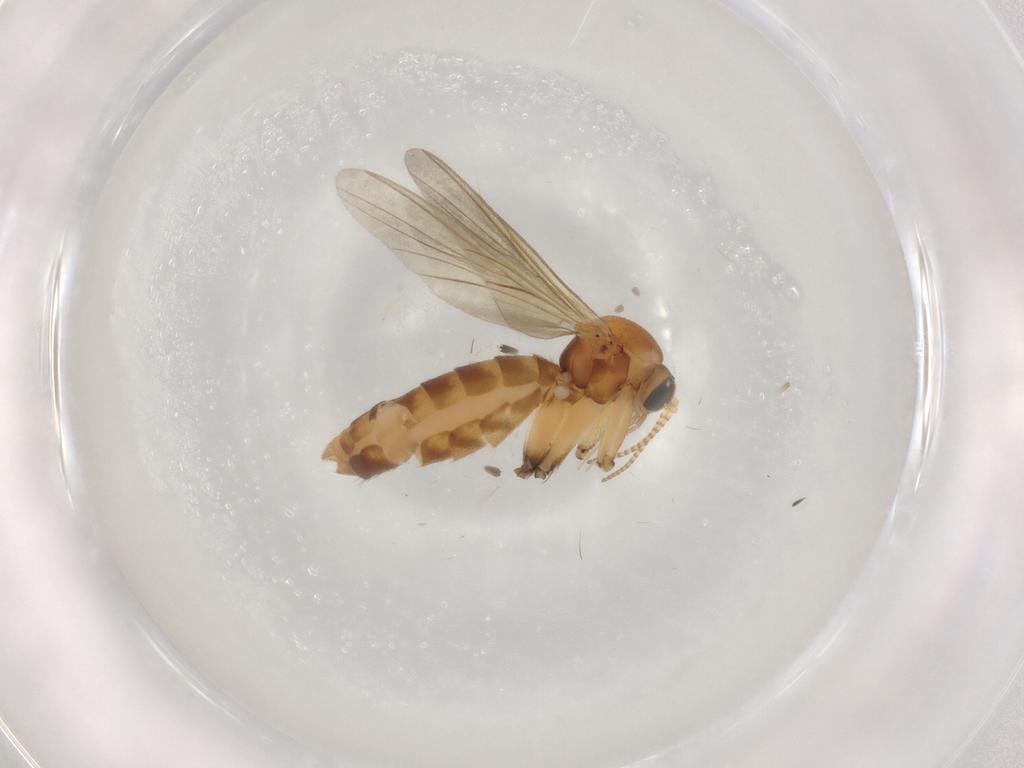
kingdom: Animalia
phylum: Arthropoda
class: Insecta
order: Diptera
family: Mycetophilidae
